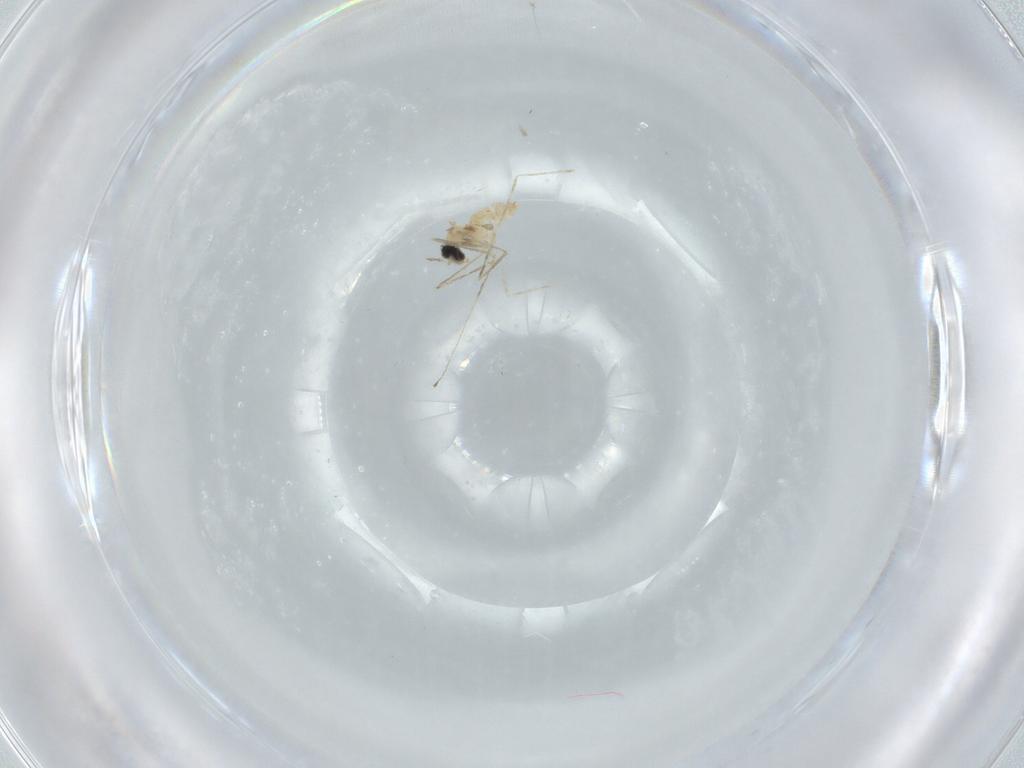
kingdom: Animalia
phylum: Arthropoda
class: Insecta
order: Diptera
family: Cecidomyiidae
